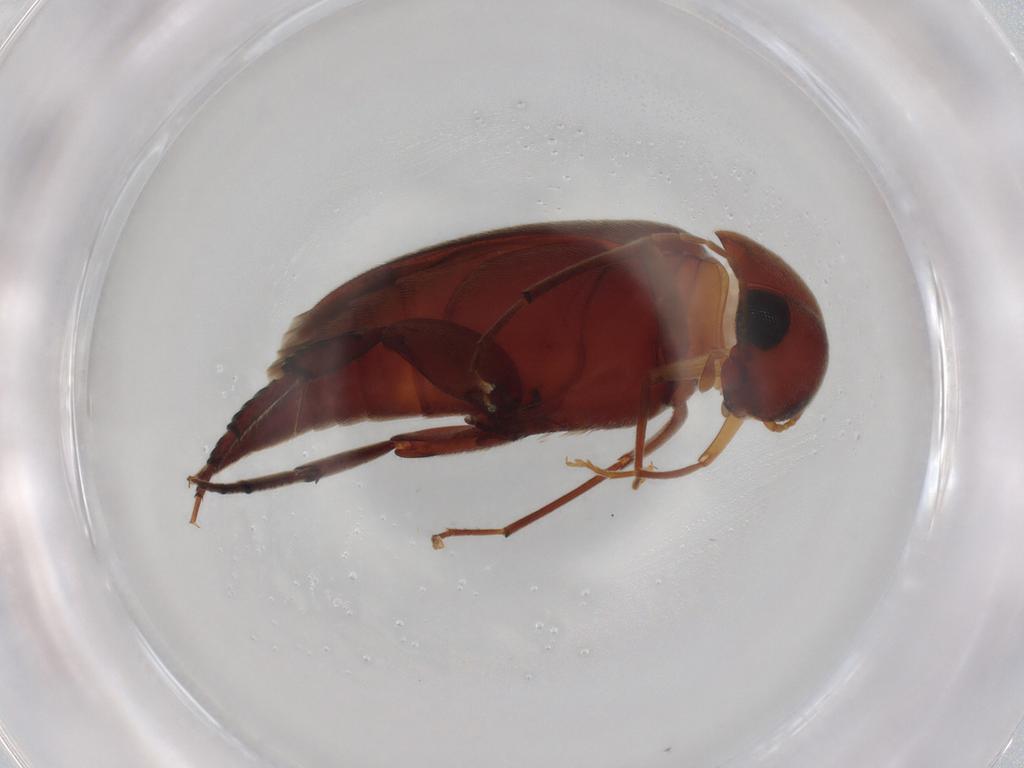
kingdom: Animalia
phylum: Arthropoda
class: Insecta
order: Coleoptera
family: Mordellidae
